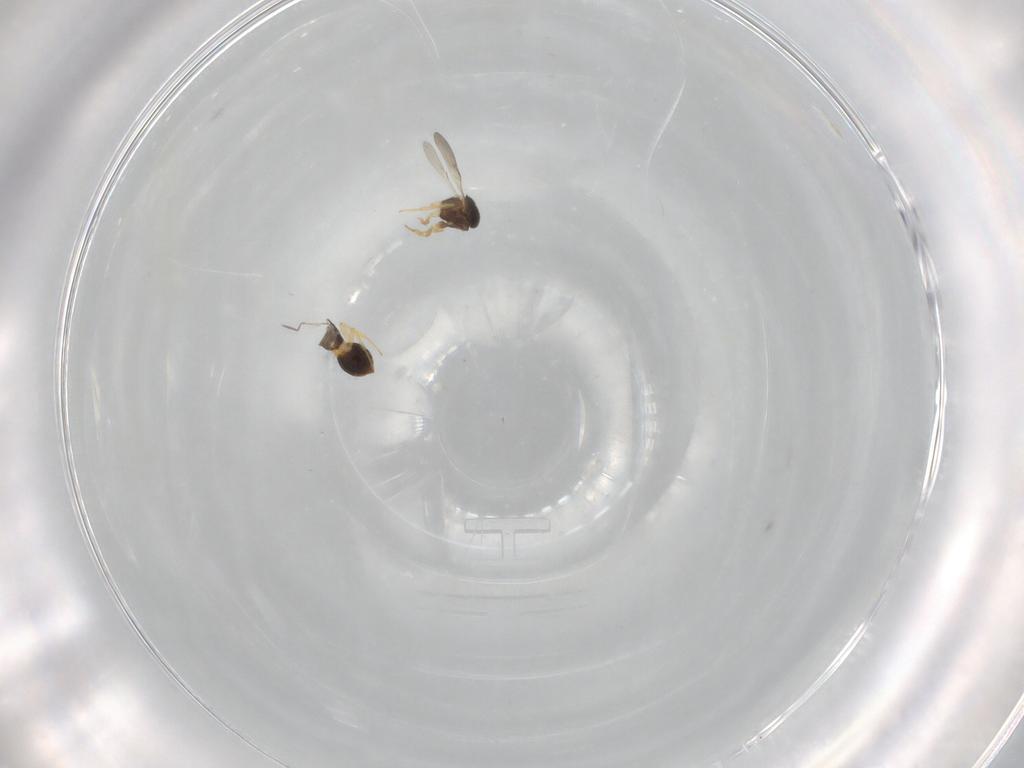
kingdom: Animalia
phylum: Arthropoda
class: Insecta
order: Hymenoptera
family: Scelionidae
